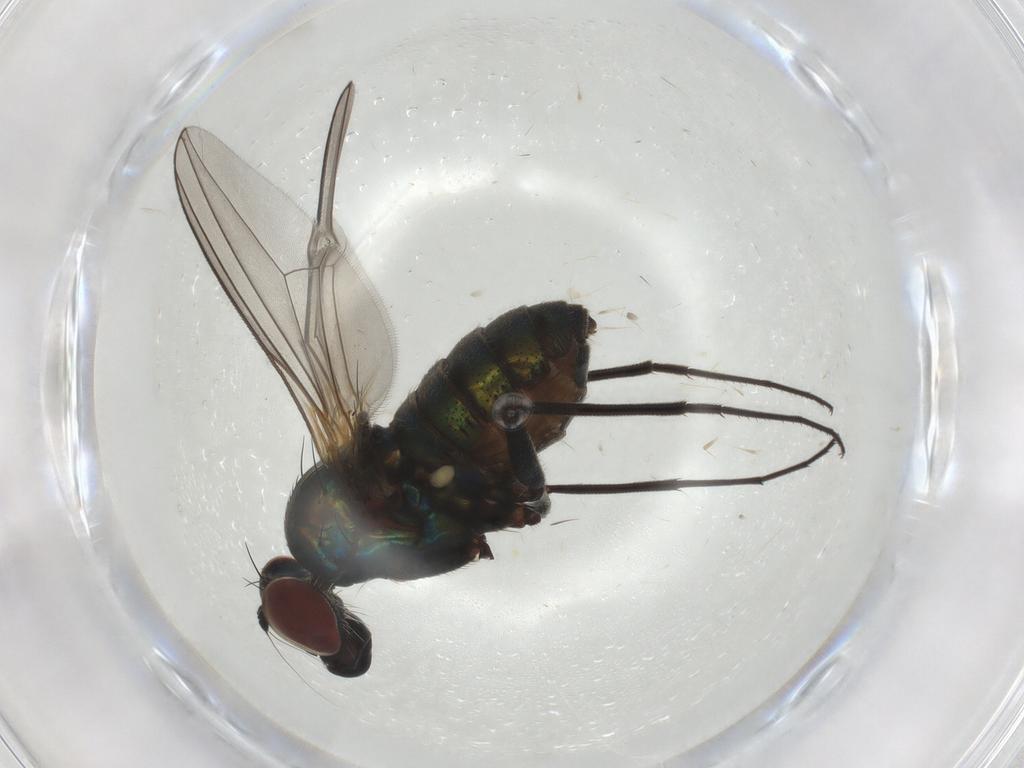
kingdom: Animalia
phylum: Arthropoda
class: Insecta
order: Diptera
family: Dolichopodidae
